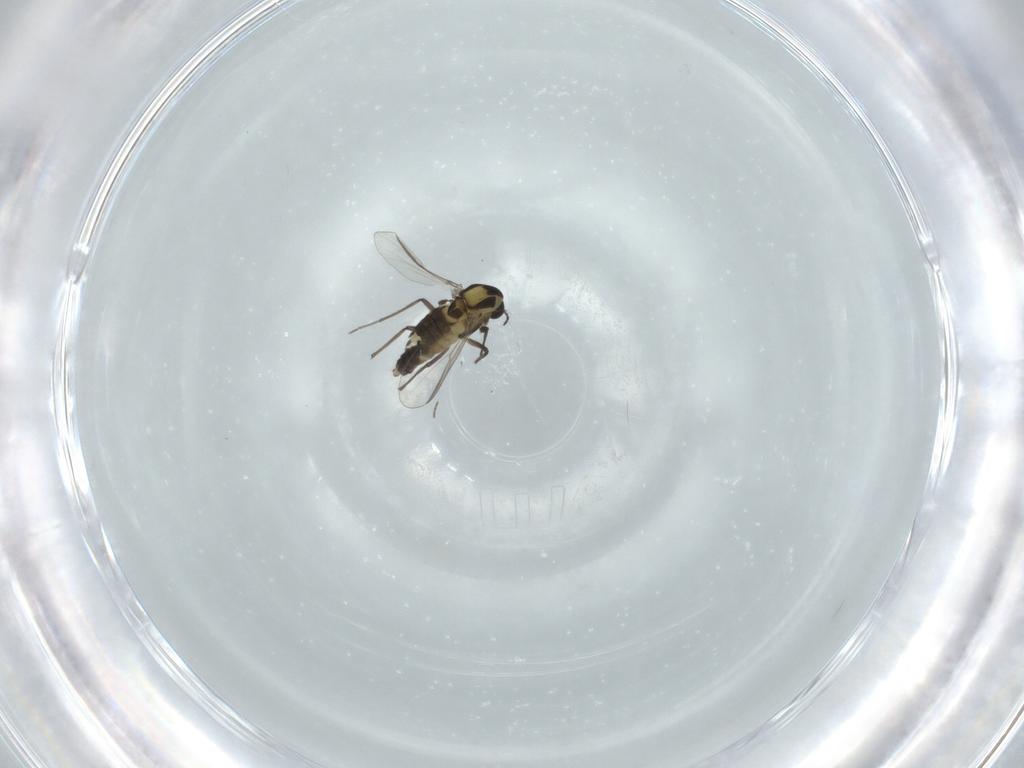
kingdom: Animalia
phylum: Arthropoda
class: Insecta
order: Diptera
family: Chironomidae
